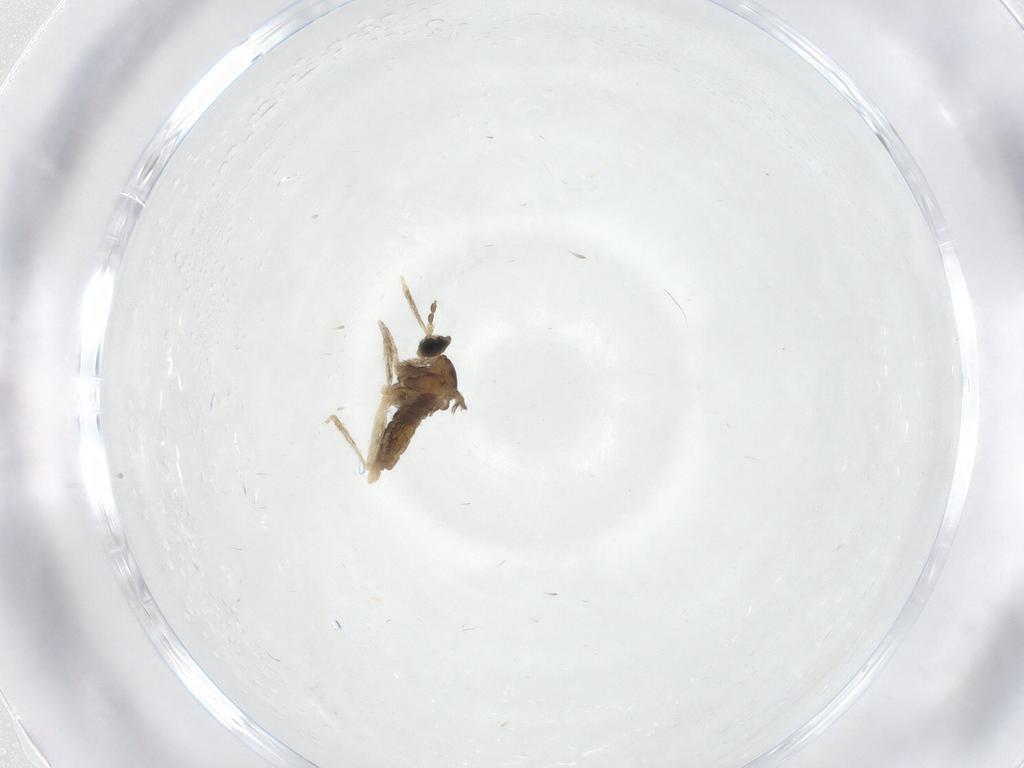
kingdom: Animalia
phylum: Arthropoda
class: Insecta
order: Diptera
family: Cecidomyiidae
